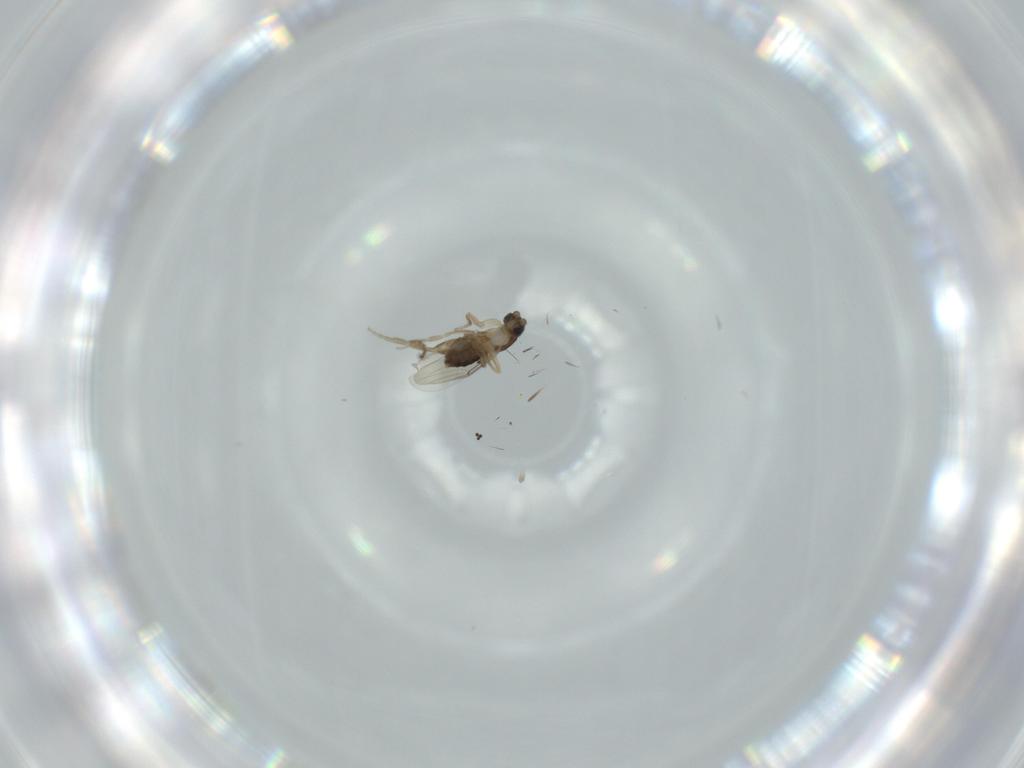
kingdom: Animalia
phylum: Arthropoda
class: Insecta
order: Diptera
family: Phoridae
